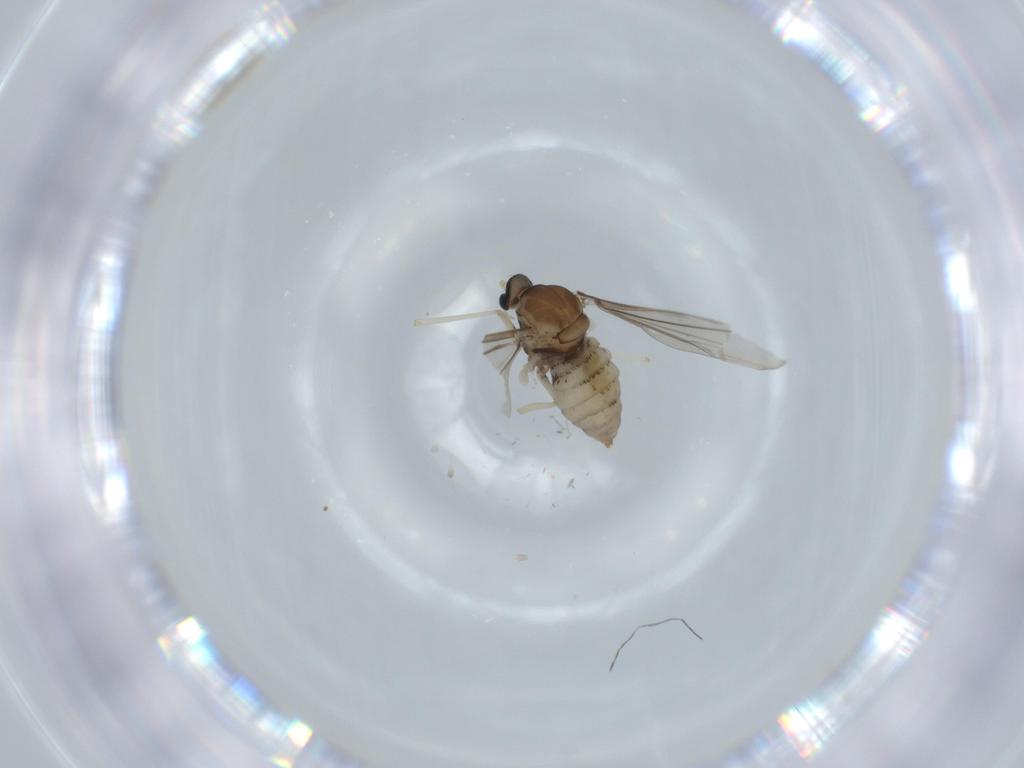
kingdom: Animalia
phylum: Arthropoda
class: Insecta
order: Diptera
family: Cecidomyiidae
